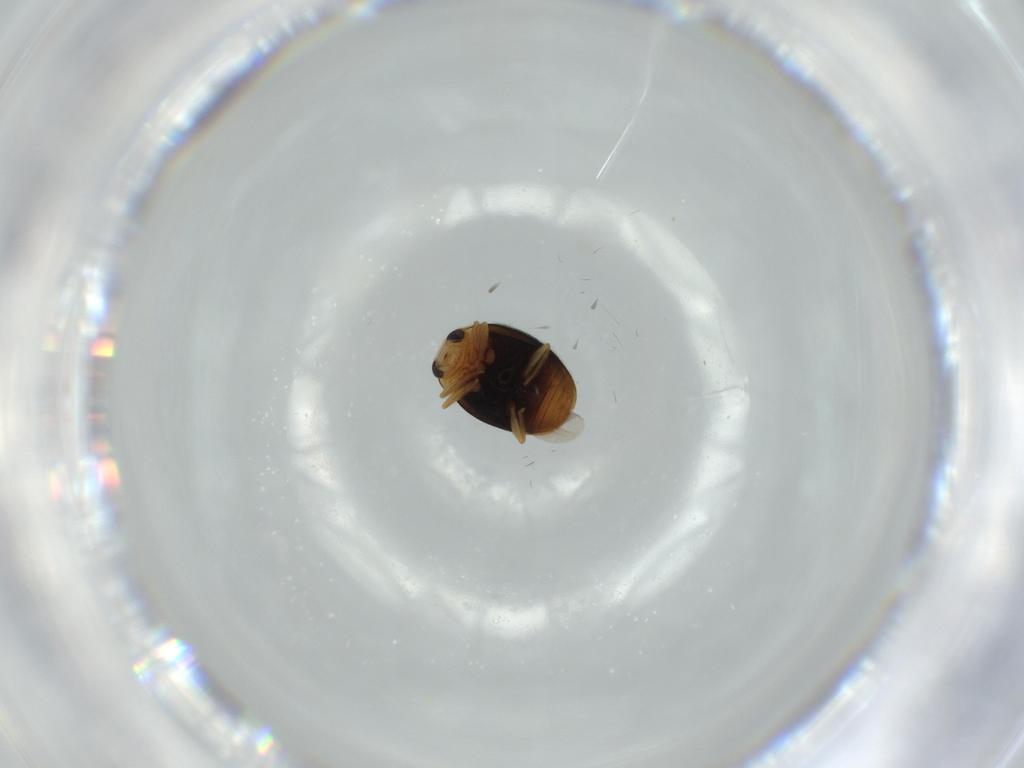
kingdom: Animalia
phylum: Arthropoda
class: Insecta
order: Coleoptera
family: Coccinellidae
